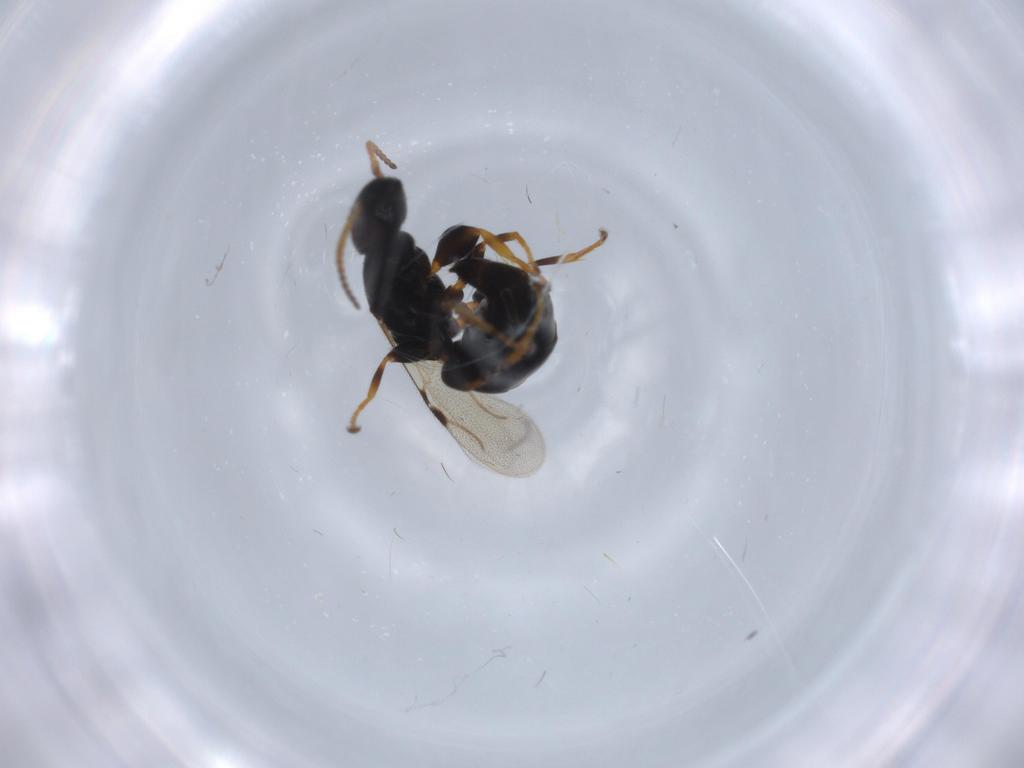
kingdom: Animalia
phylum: Arthropoda
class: Insecta
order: Hymenoptera
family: Bethylidae
